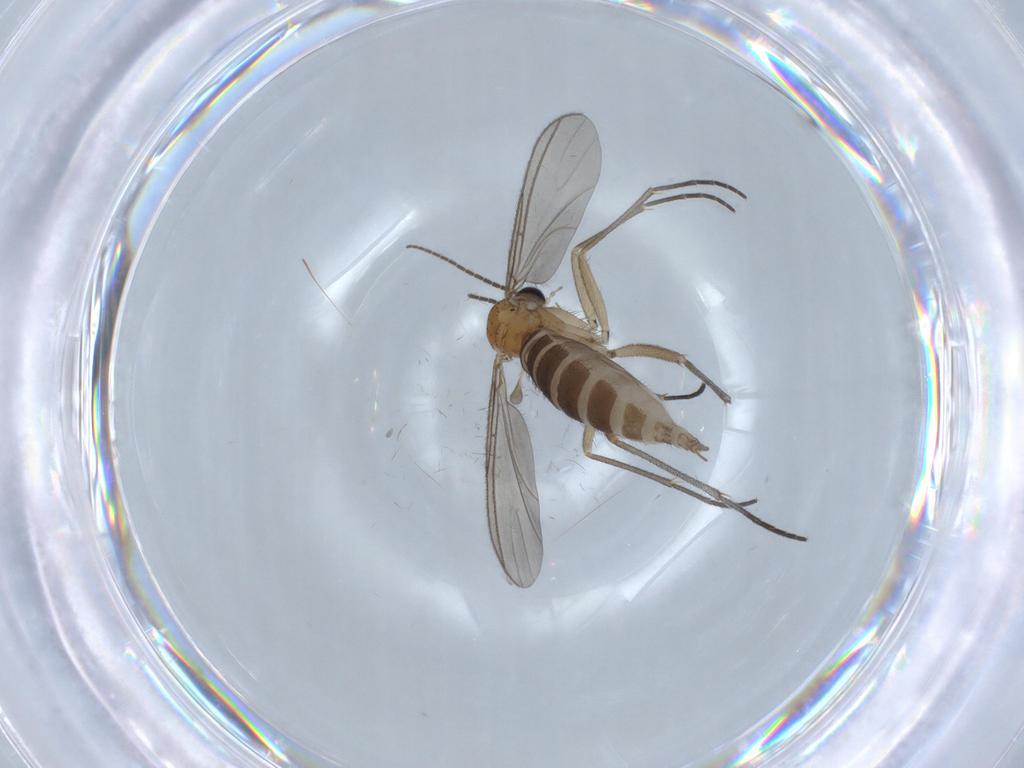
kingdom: Animalia
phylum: Arthropoda
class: Insecta
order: Diptera
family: Sciaridae
